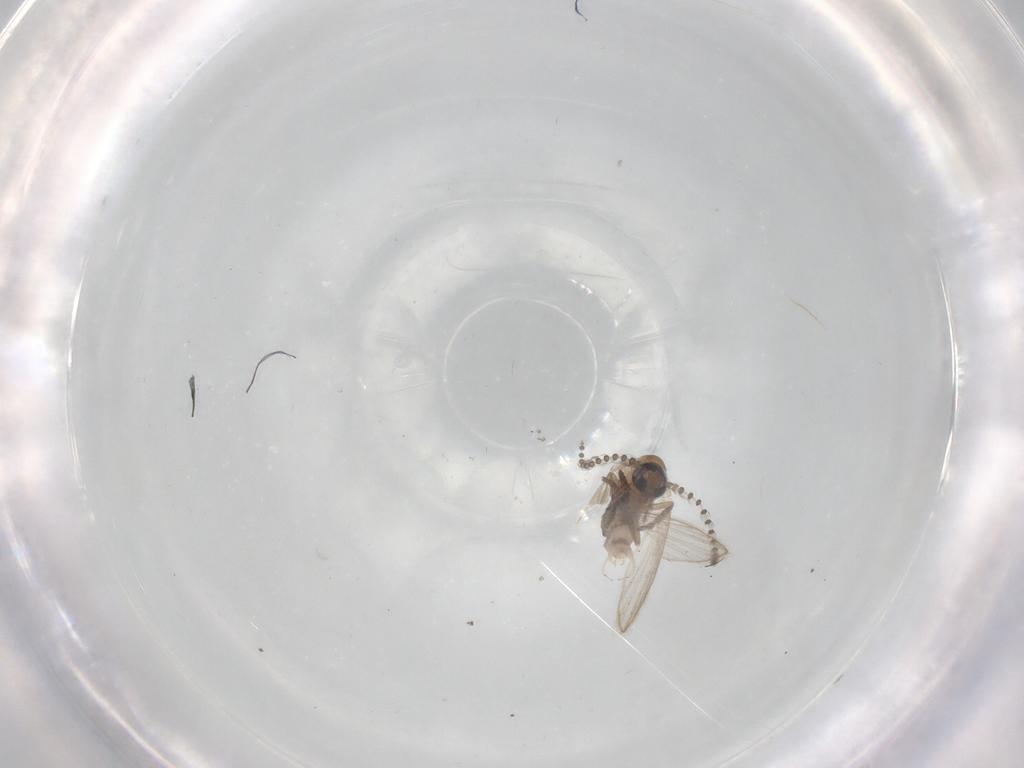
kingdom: Animalia
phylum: Arthropoda
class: Insecta
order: Diptera
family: Psychodidae
